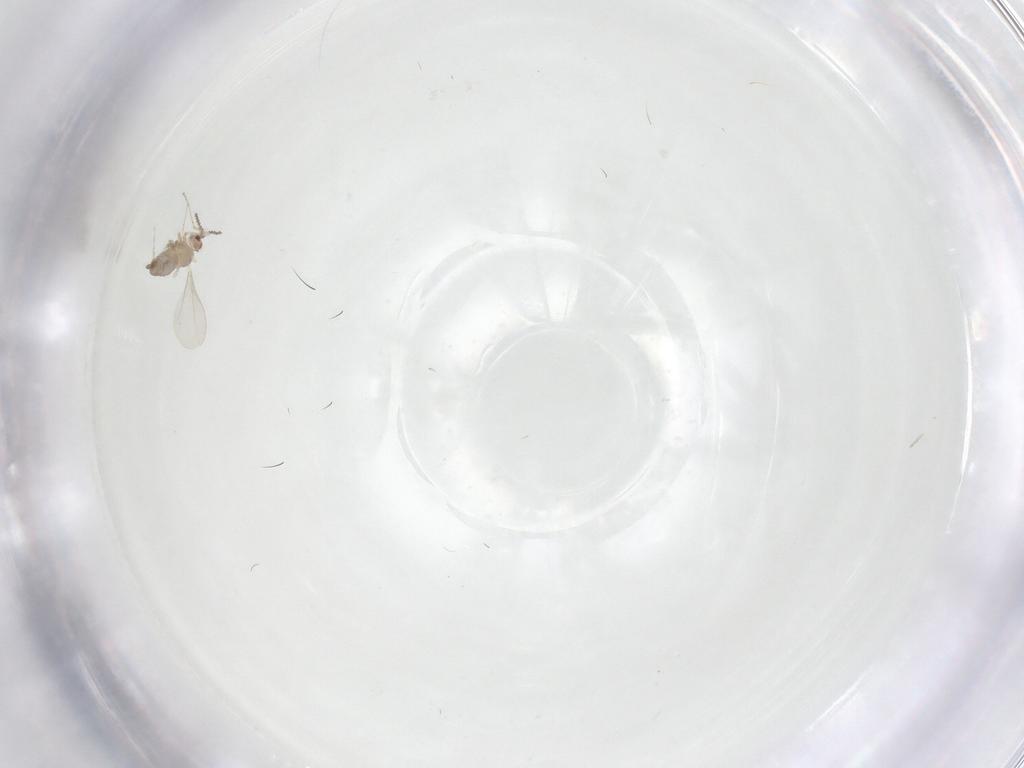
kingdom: Animalia
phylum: Arthropoda
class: Insecta
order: Diptera
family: Cecidomyiidae
